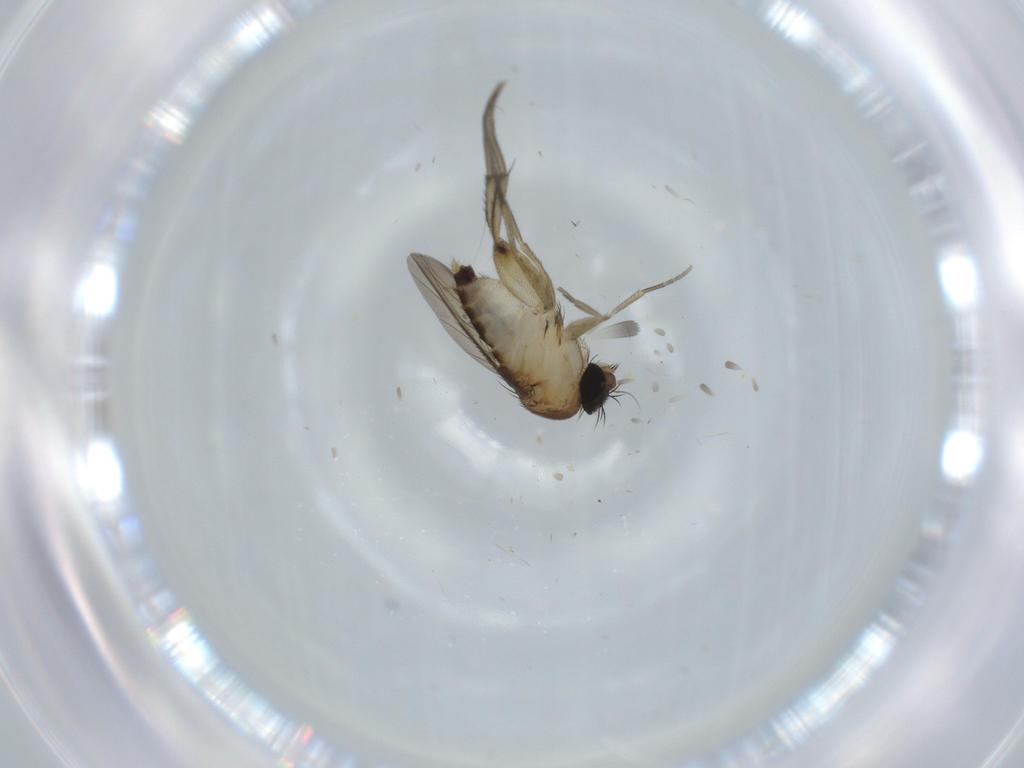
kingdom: Animalia
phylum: Arthropoda
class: Insecta
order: Diptera
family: Phoridae
